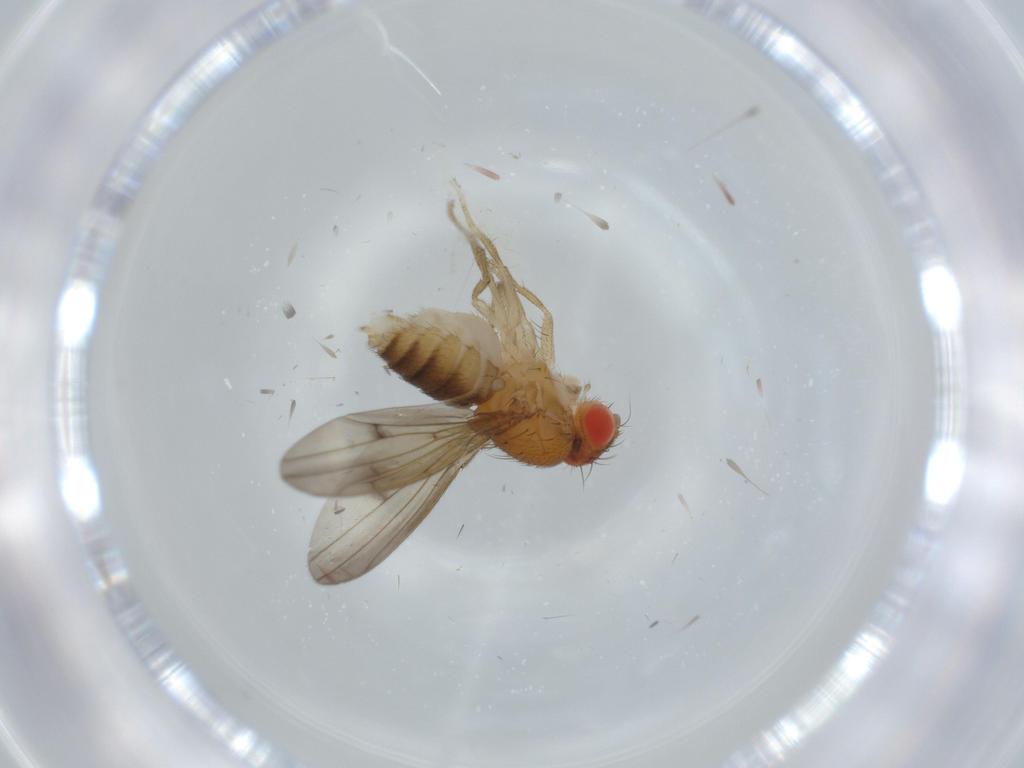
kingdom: Animalia
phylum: Arthropoda
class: Insecta
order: Diptera
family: Drosophilidae
